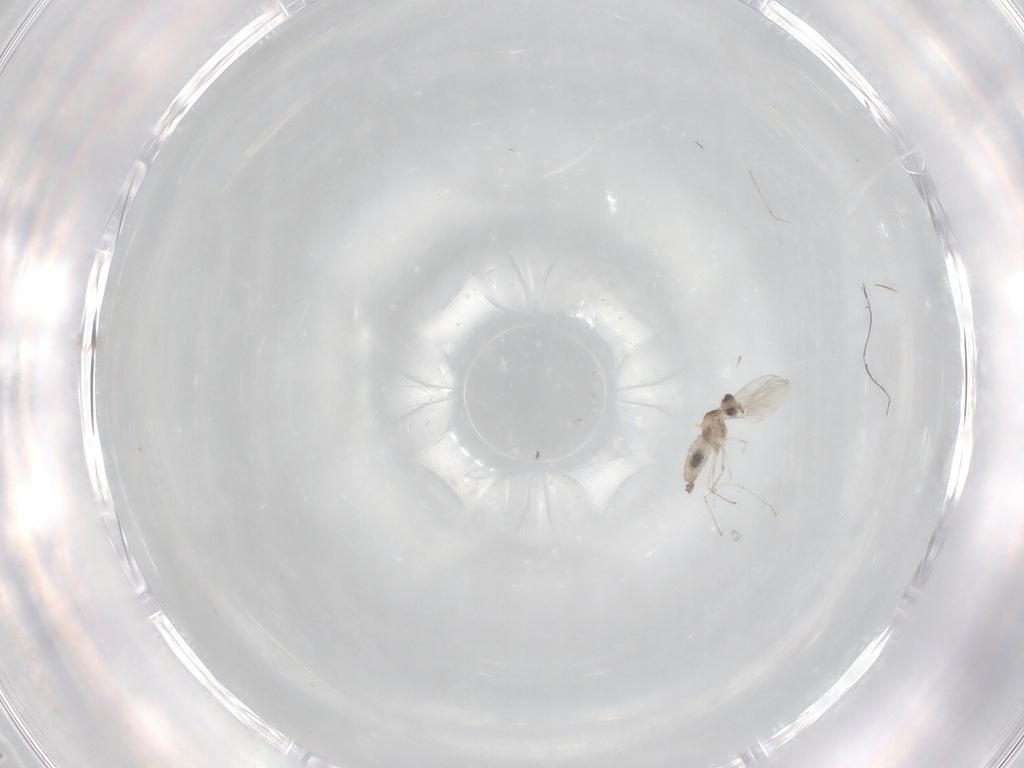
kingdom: Animalia
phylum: Arthropoda
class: Insecta
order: Diptera
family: Cecidomyiidae
